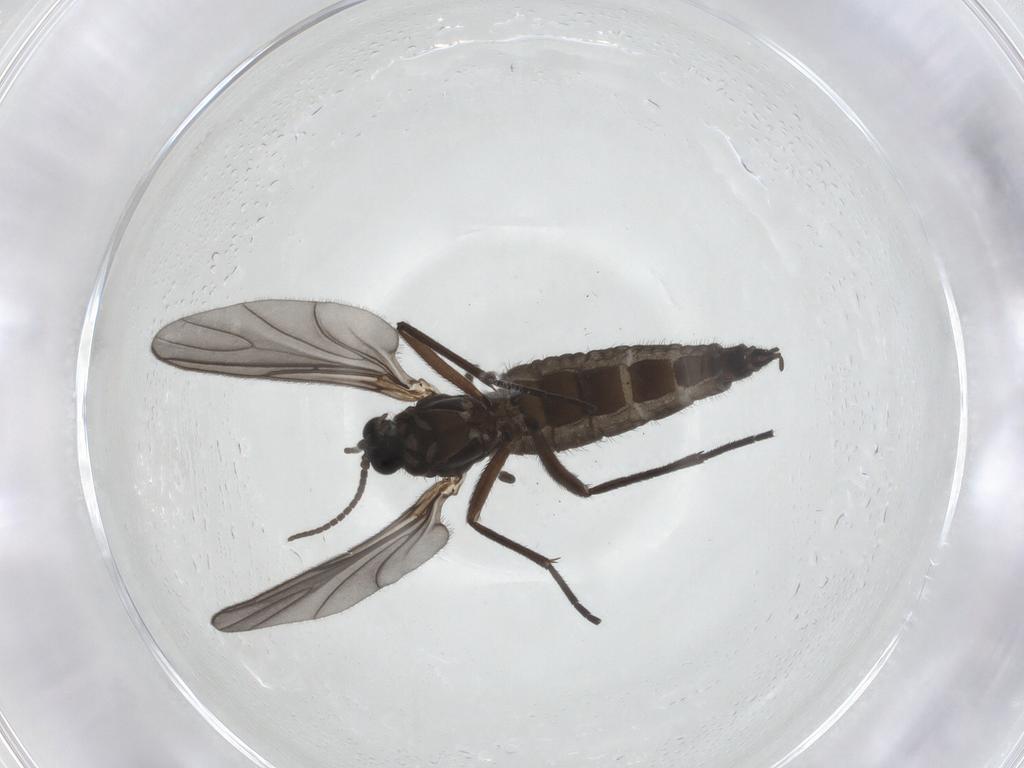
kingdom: Animalia
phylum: Arthropoda
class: Insecta
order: Diptera
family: Sciaridae
